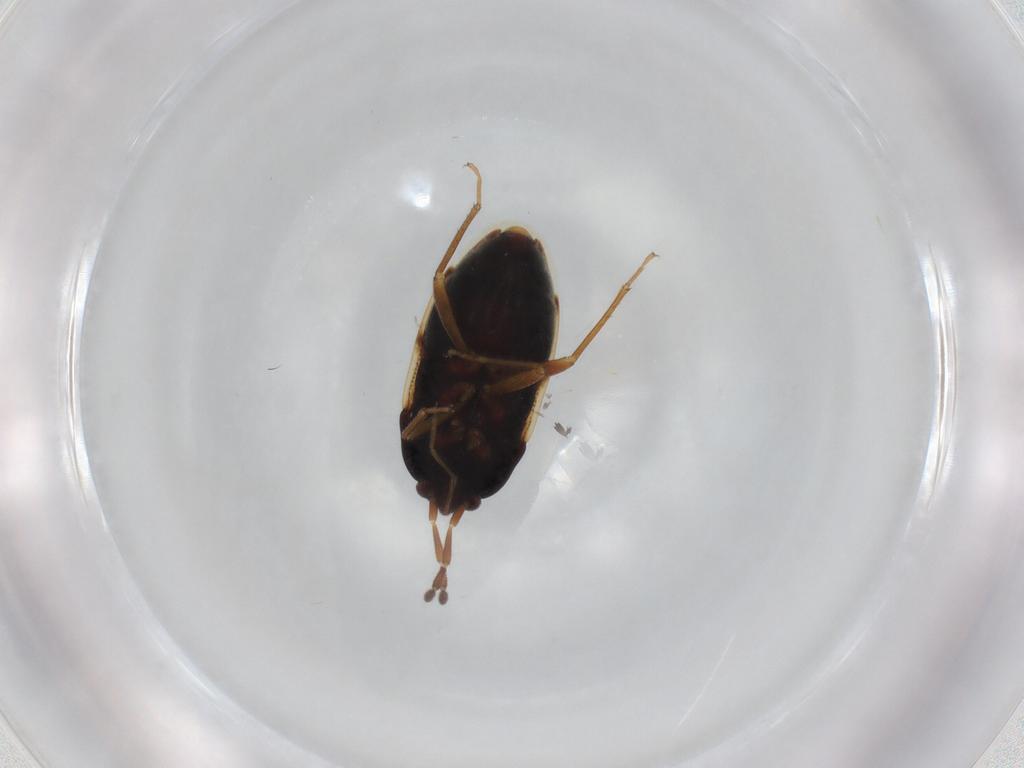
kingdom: Animalia
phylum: Arthropoda
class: Insecta
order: Hemiptera
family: Rhyparochromidae
